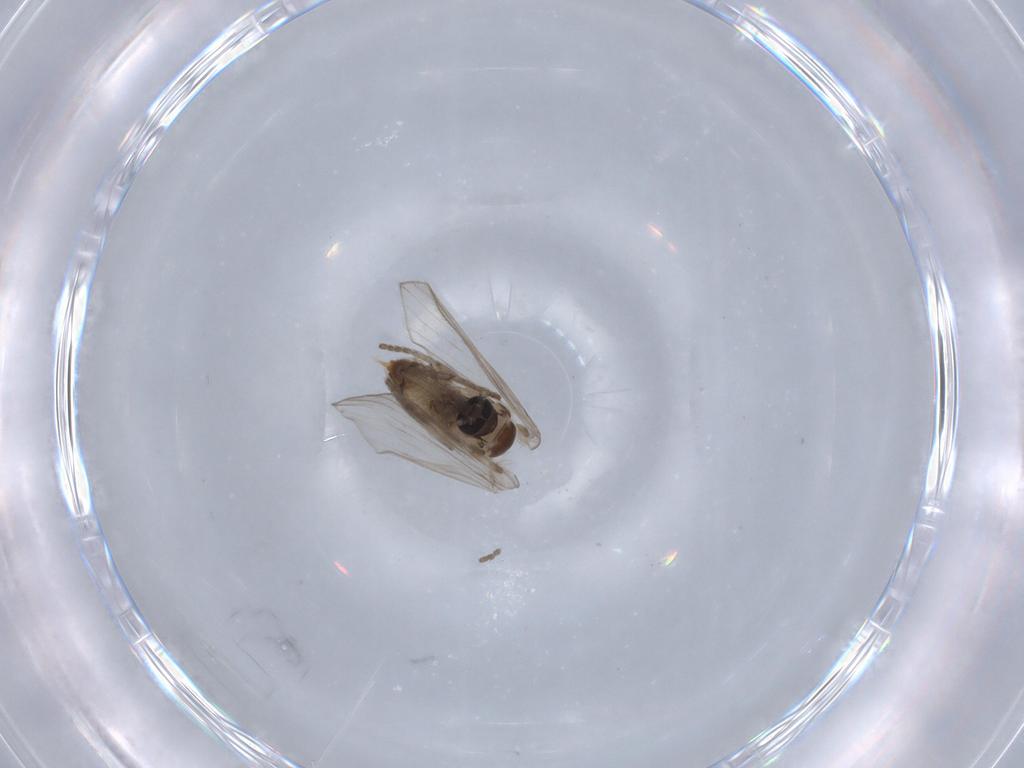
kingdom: Animalia
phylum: Arthropoda
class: Insecta
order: Diptera
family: Psychodidae
